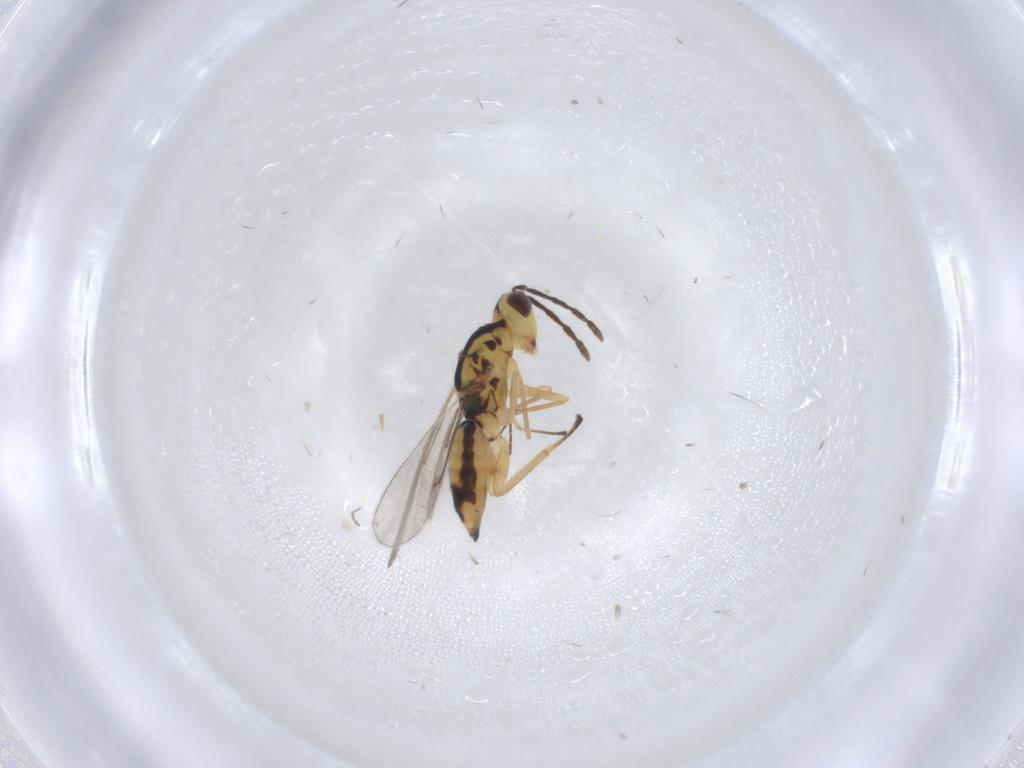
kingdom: Animalia
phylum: Arthropoda
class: Insecta
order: Hymenoptera
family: Eulophidae
